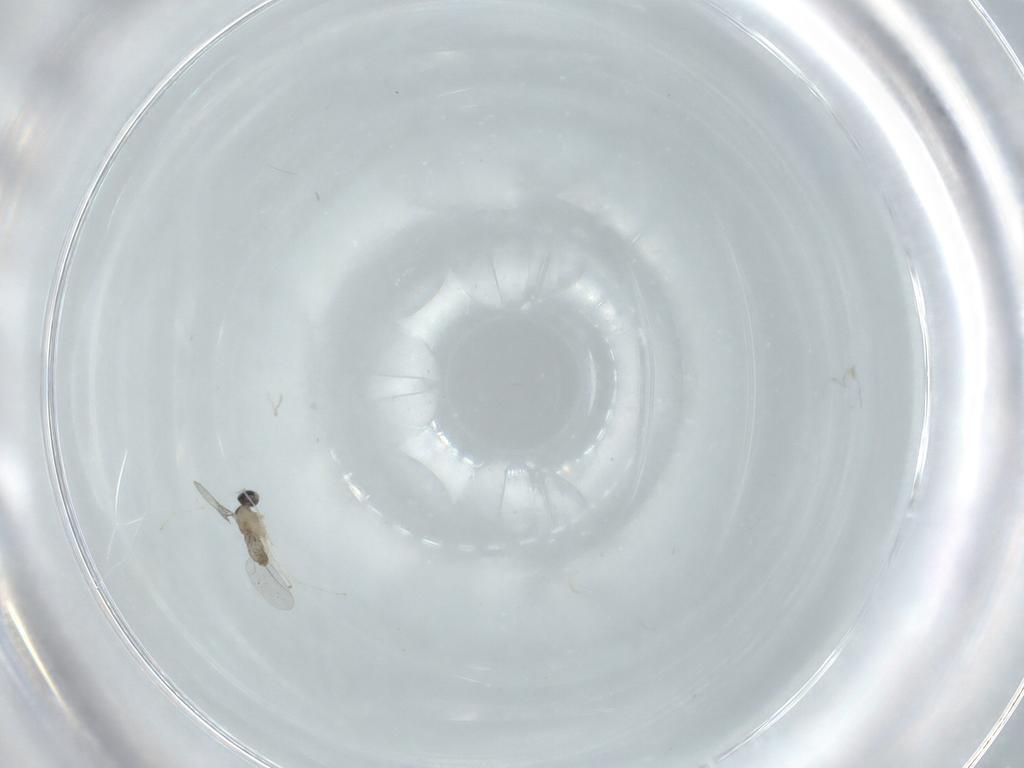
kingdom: Animalia
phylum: Arthropoda
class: Insecta
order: Diptera
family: Cecidomyiidae
